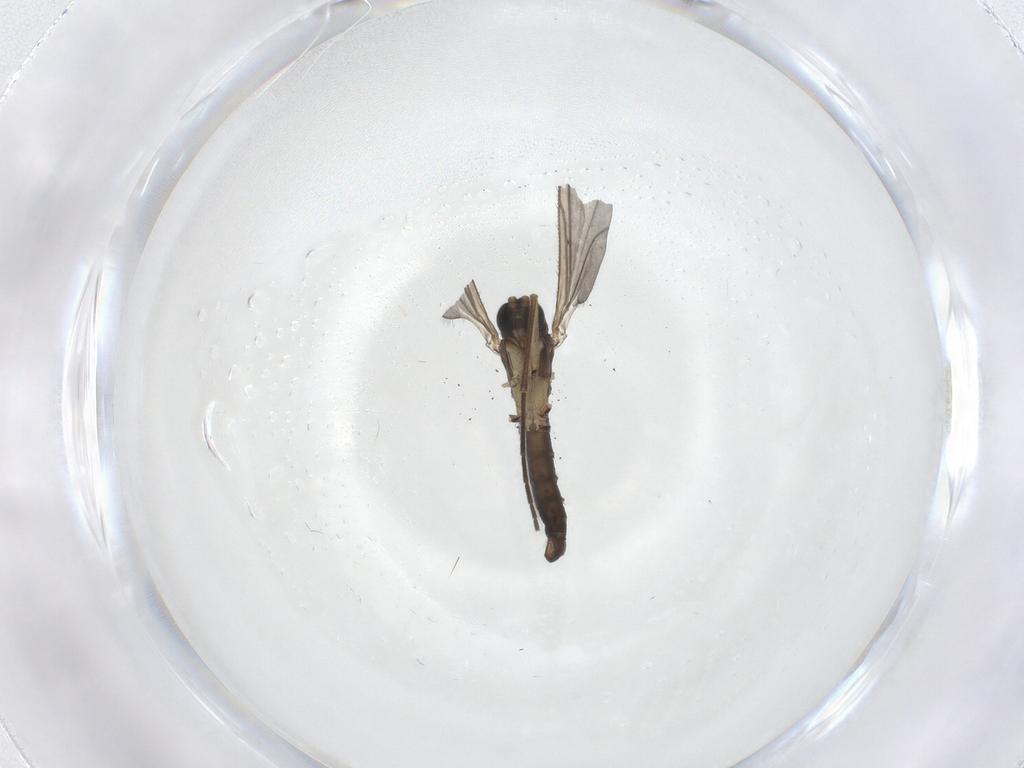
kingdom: Animalia
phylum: Arthropoda
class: Insecta
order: Diptera
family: Sciaridae
